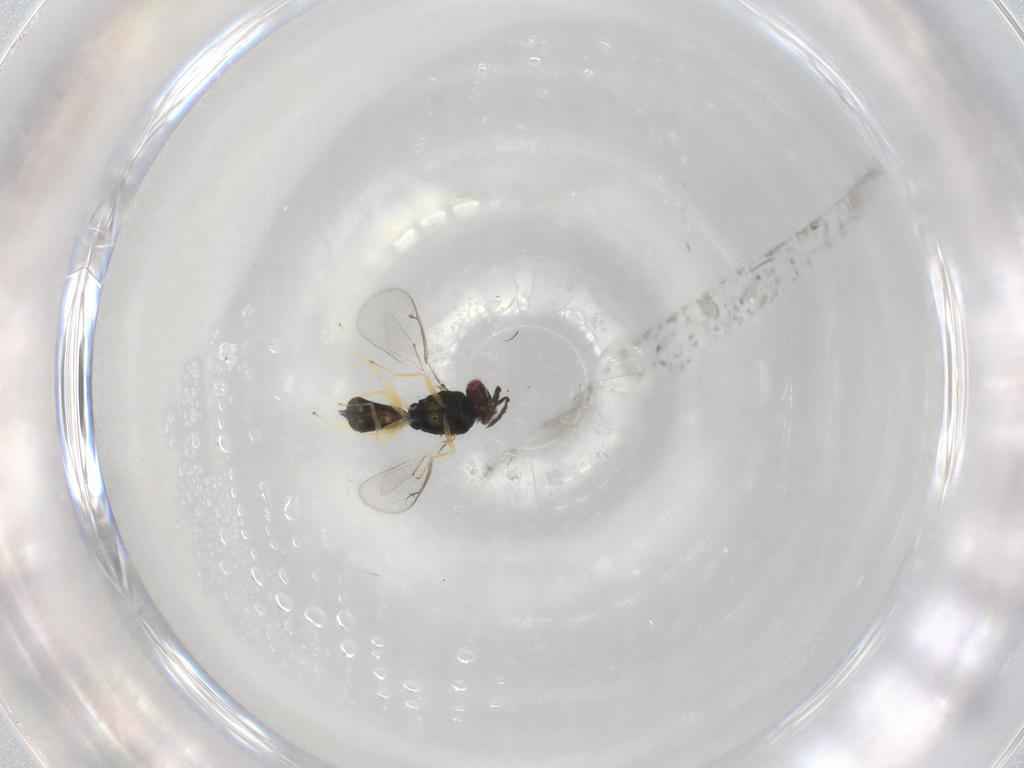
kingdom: Animalia
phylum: Arthropoda
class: Insecta
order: Hymenoptera
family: Eulophidae
